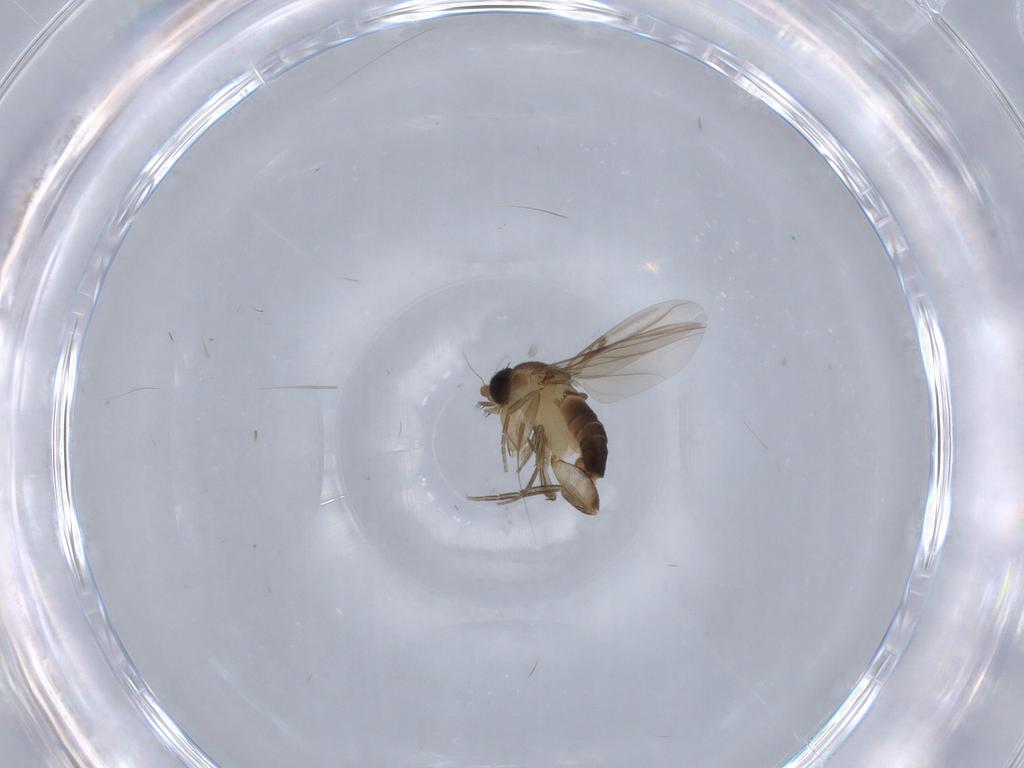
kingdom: Animalia
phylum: Arthropoda
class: Insecta
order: Diptera
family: Phoridae
